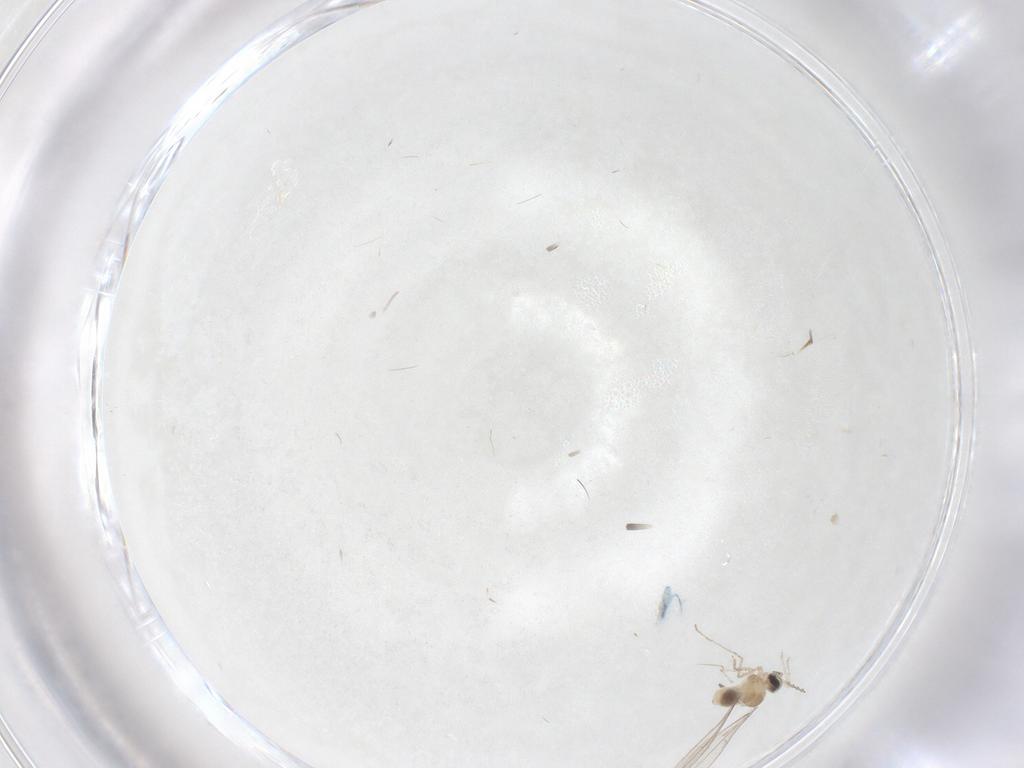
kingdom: Animalia
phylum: Arthropoda
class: Insecta
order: Diptera
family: Cecidomyiidae
